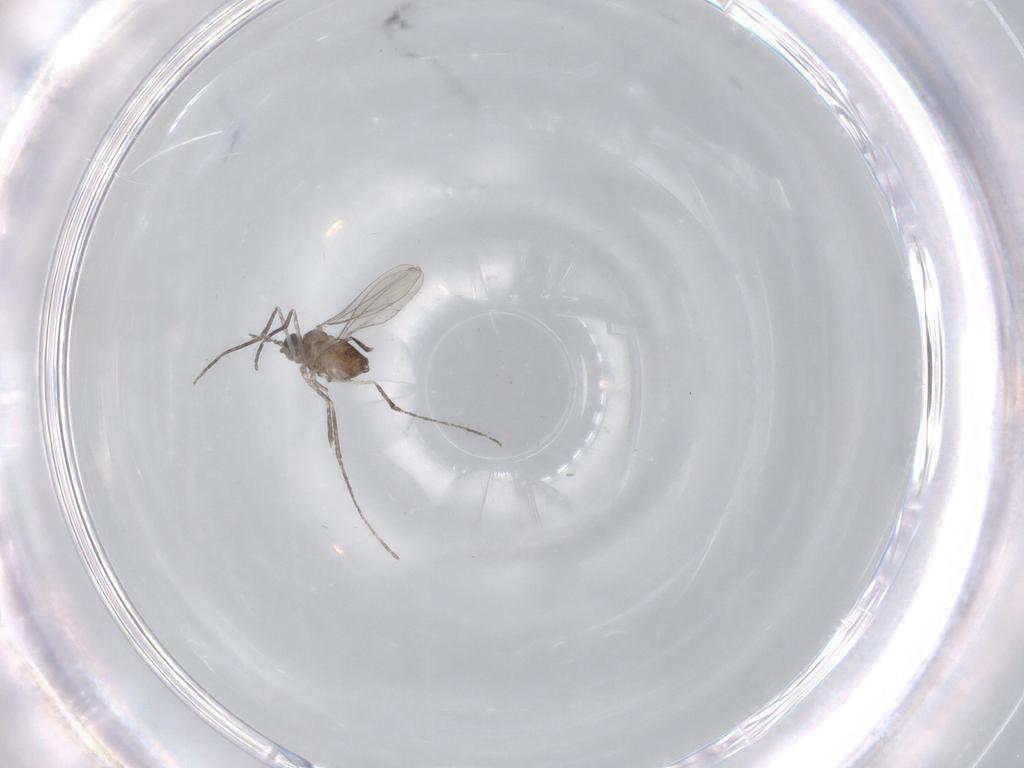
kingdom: Animalia
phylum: Arthropoda
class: Insecta
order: Diptera
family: Cecidomyiidae
